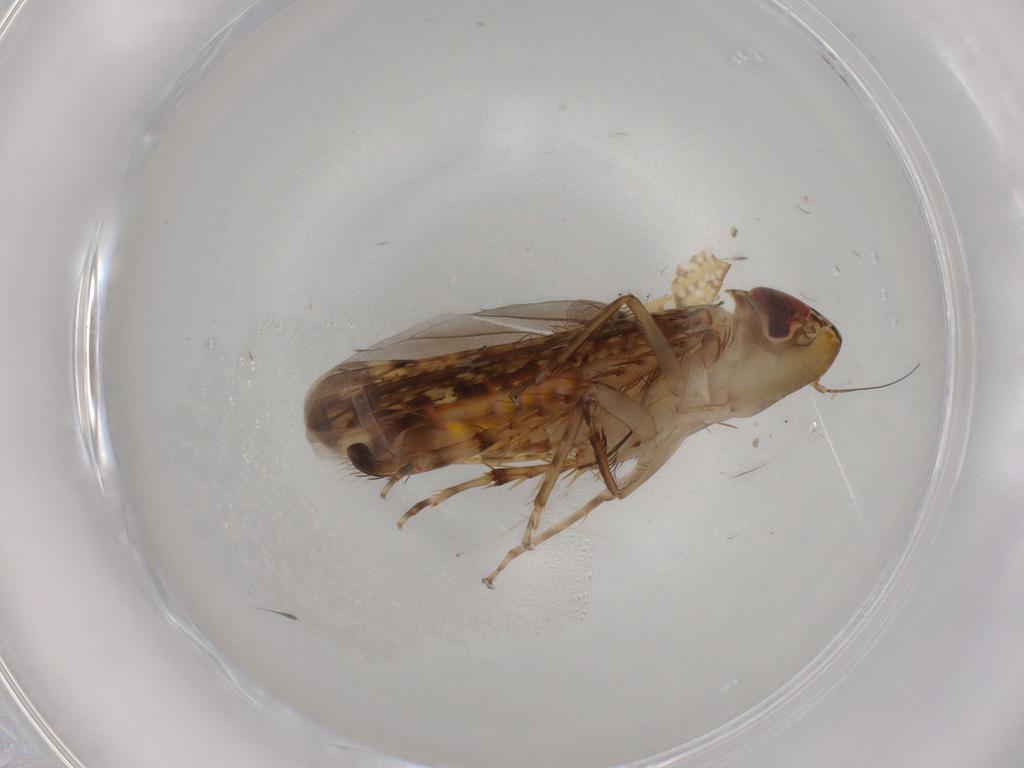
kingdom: Animalia
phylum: Arthropoda
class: Insecta
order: Hemiptera
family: Cicadellidae
